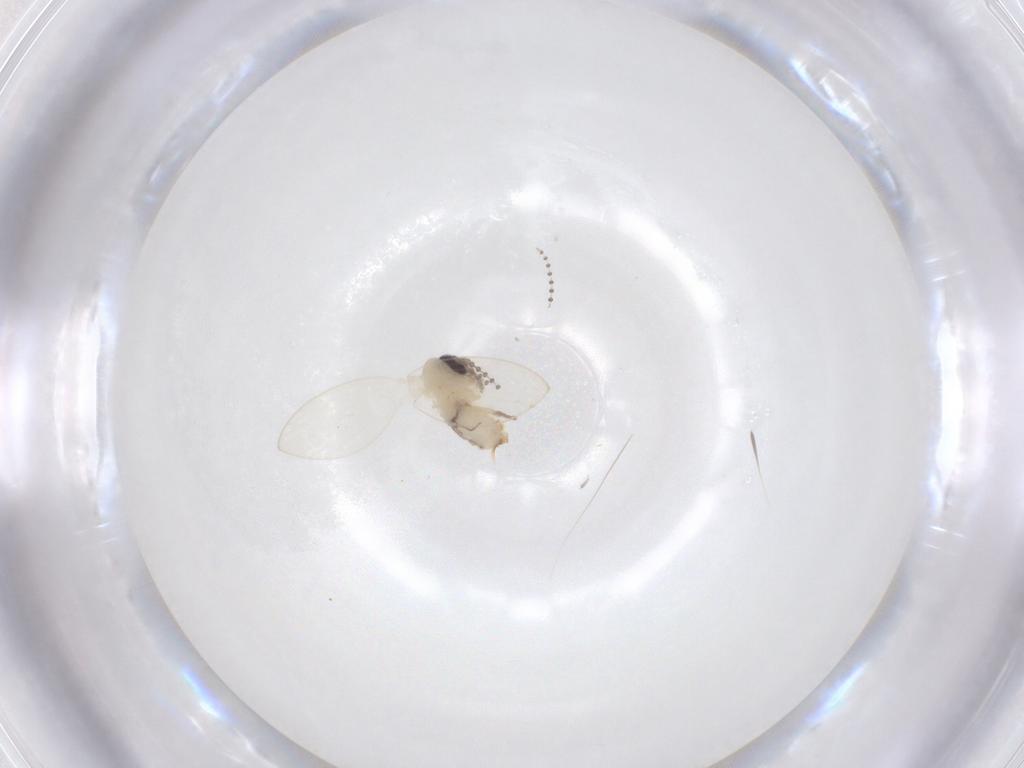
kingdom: Animalia
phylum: Arthropoda
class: Insecta
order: Diptera
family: Psychodidae
